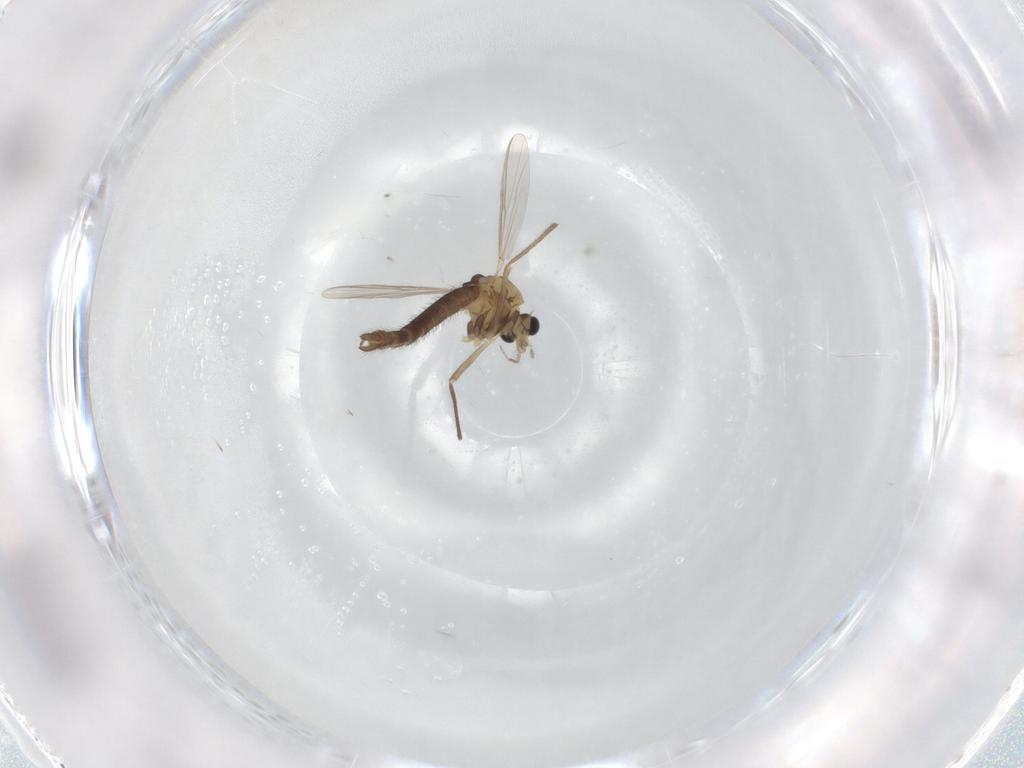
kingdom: Animalia
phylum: Arthropoda
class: Insecta
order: Diptera
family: Chironomidae
